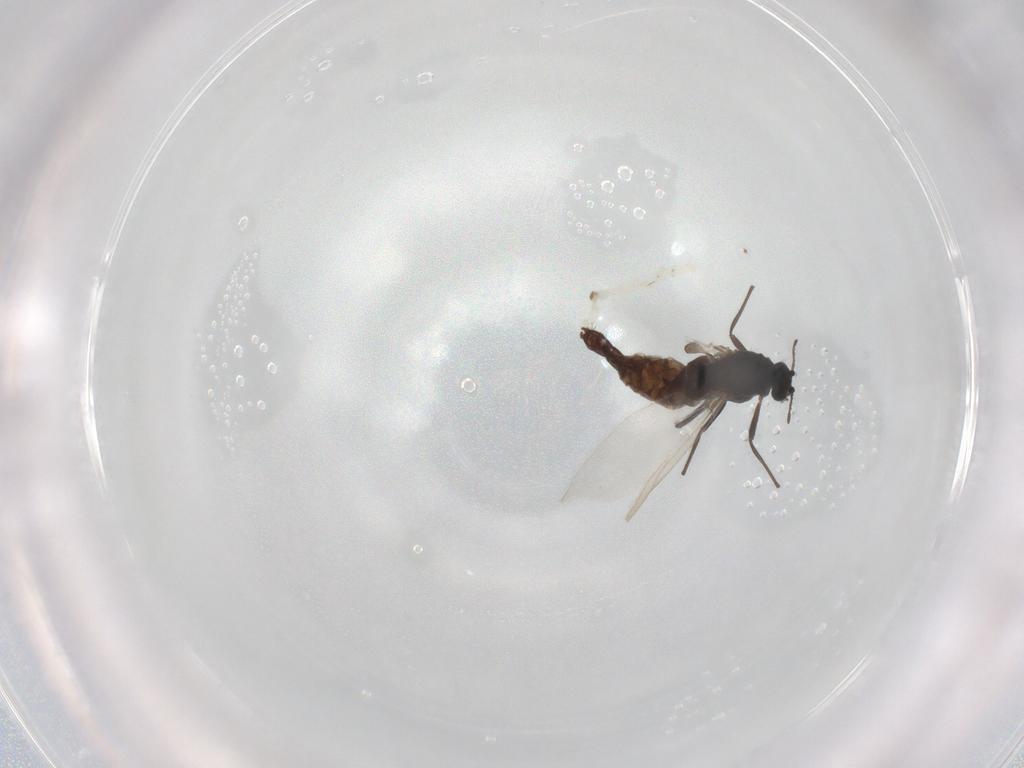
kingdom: Animalia
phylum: Arthropoda
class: Insecta
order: Diptera
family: Chironomidae
